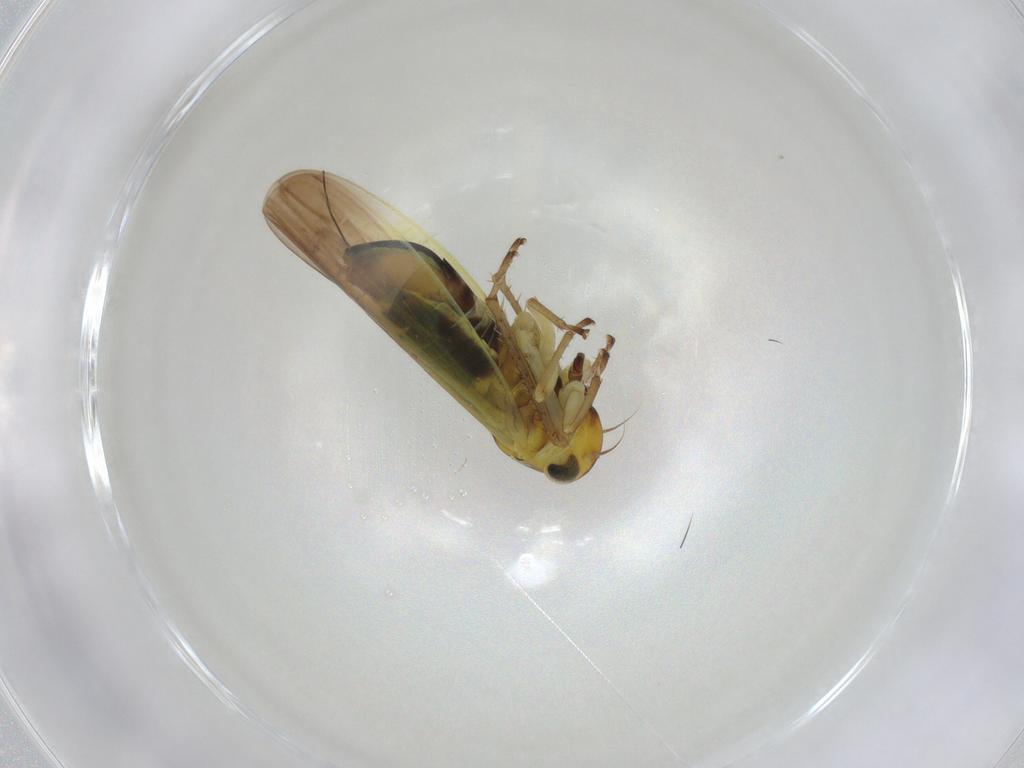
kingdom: Animalia
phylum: Arthropoda
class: Insecta
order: Hemiptera
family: Cicadellidae
